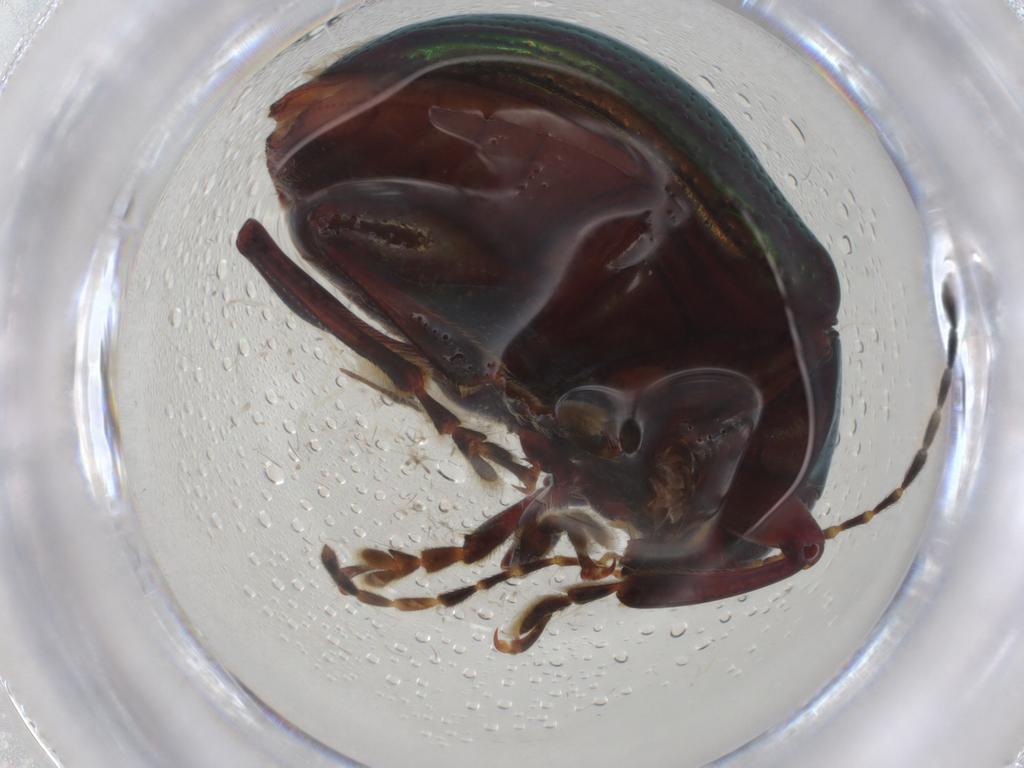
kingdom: Animalia
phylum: Arthropoda
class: Insecta
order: Coleoptera
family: Chrysomelidae
